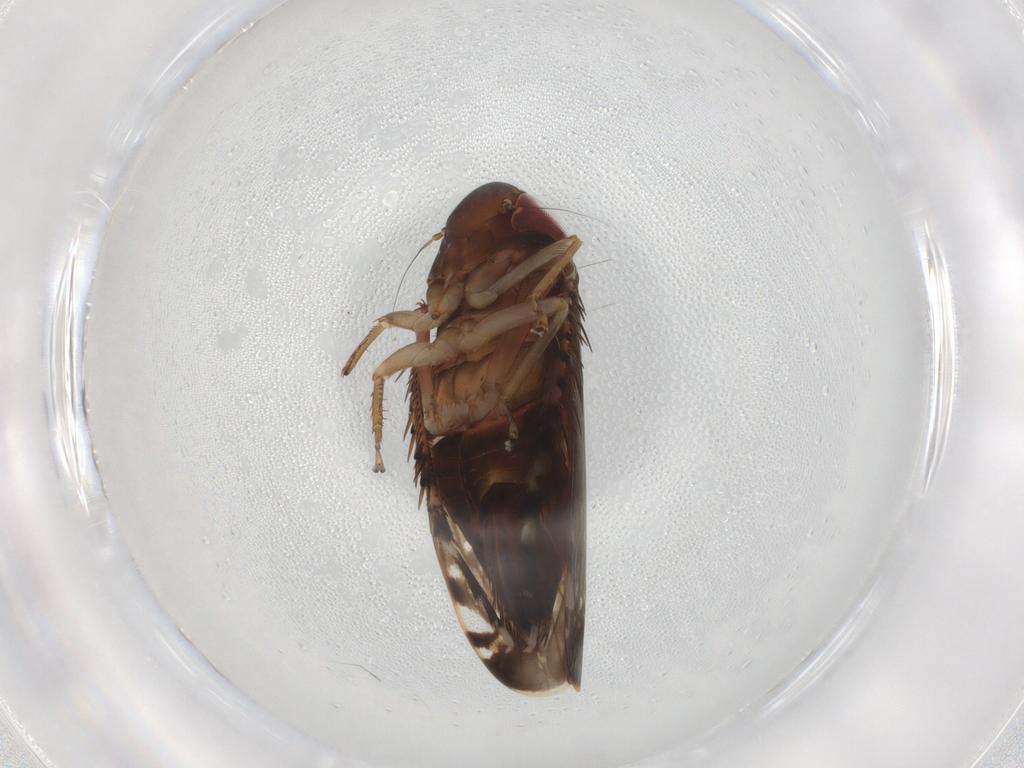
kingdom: Animalia
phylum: Arthropoda
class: Insecta
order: Hemiptera
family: Cicadellidae
